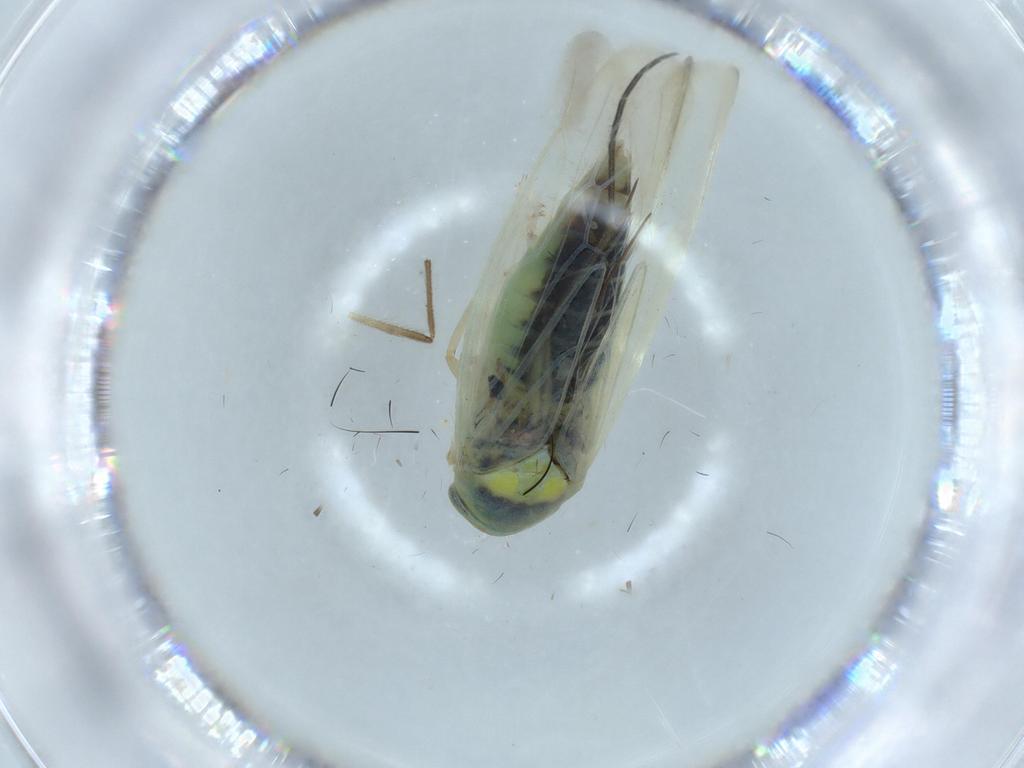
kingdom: Animalia
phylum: Arthropoda
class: Insecta
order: Hemiptera
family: Cicadellidae
